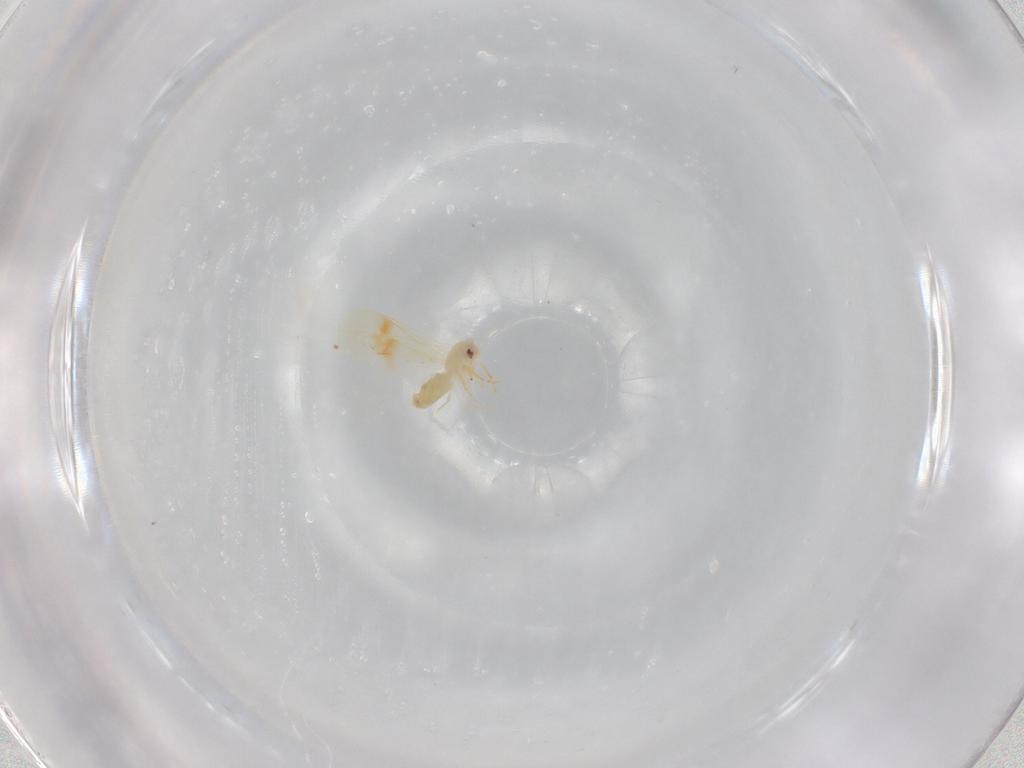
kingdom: Animalia
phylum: Arthropoda
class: Insecta
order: Hemiptera
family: Aleyrodidae
